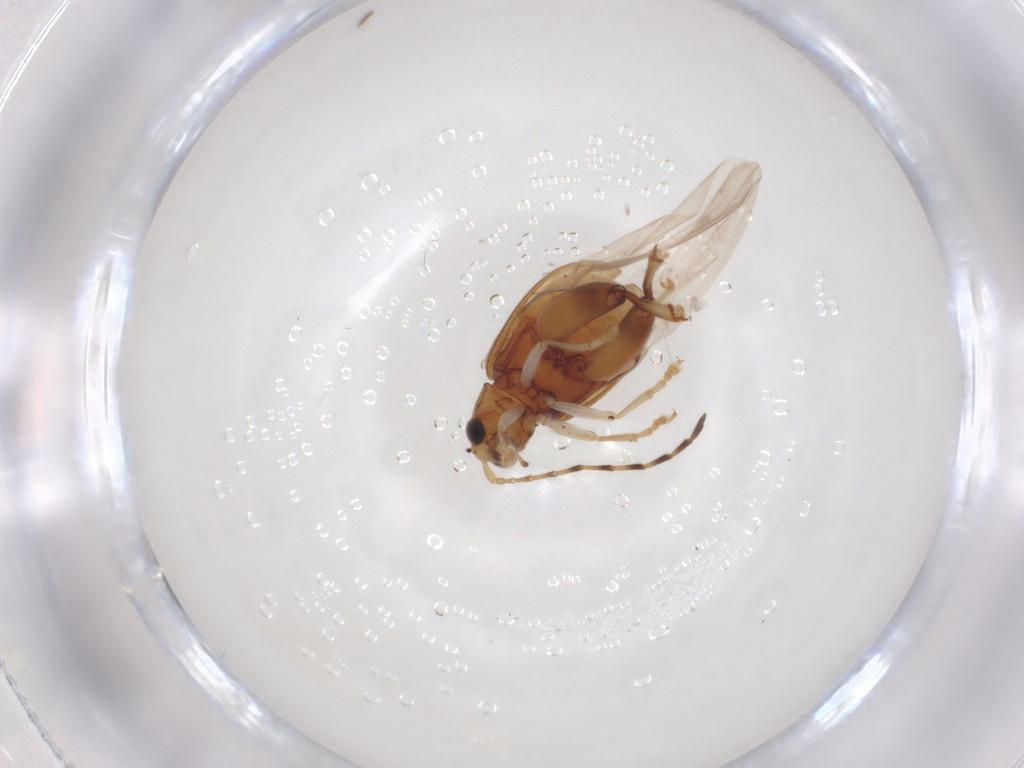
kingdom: Animalia
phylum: Arthropoda
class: Insecta
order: Coleoptera
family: Chrysomelidae
